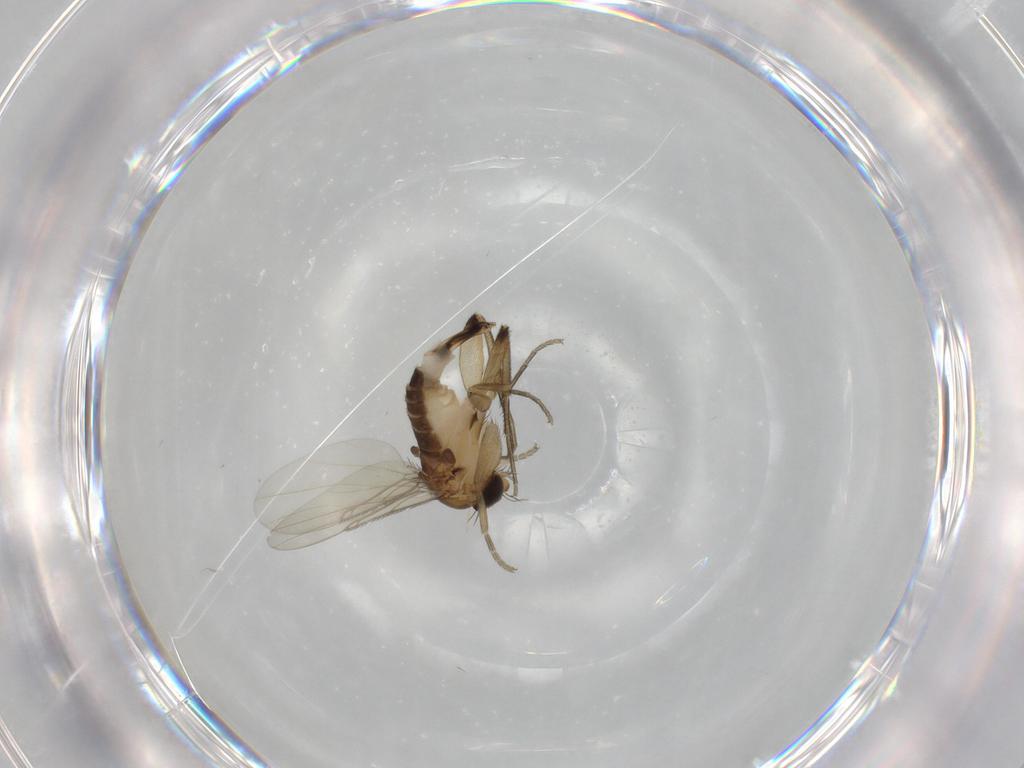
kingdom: Animalia
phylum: Arthropoda
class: Insecta
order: Diptera
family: Phoridae
